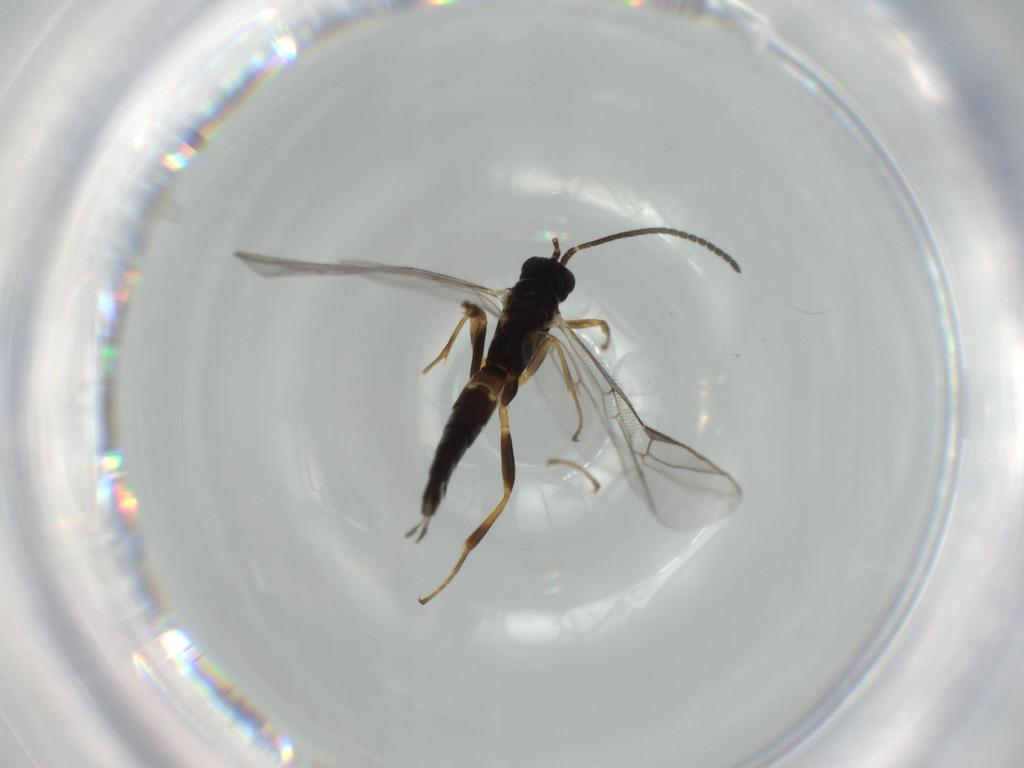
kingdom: Animalia
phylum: Arthropoda
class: Insecta
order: Hymenoptera
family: Ichneumonidae
